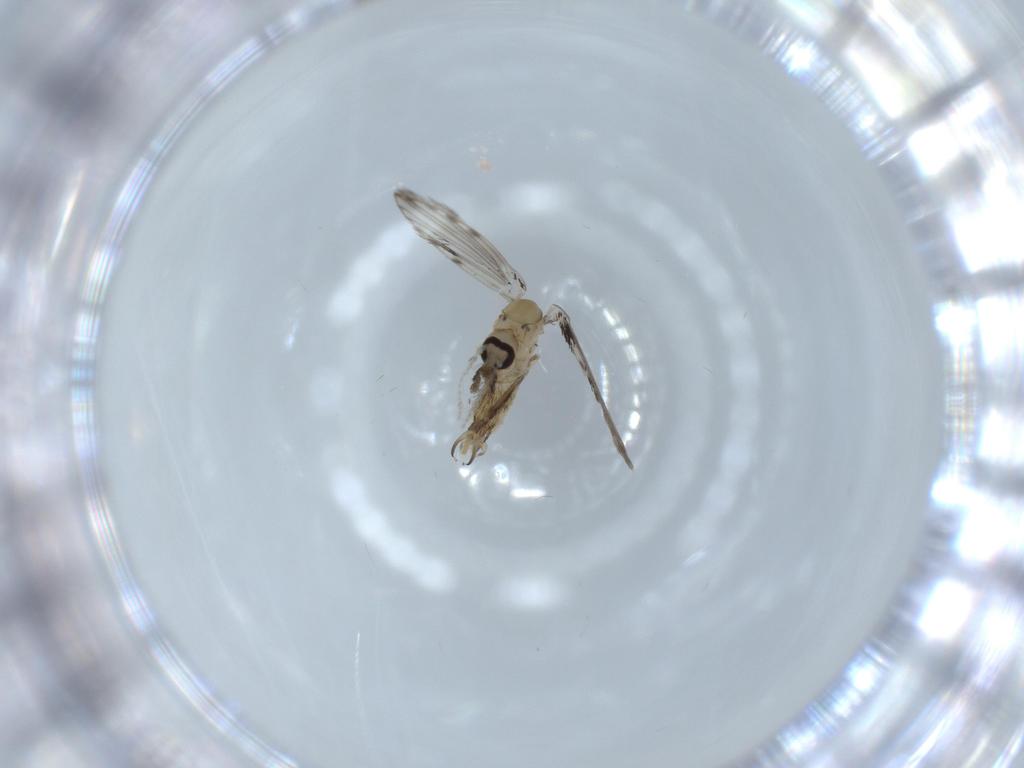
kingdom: Animalia
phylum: Arthropoda
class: Insecta
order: Diptera
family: Psychodidae
